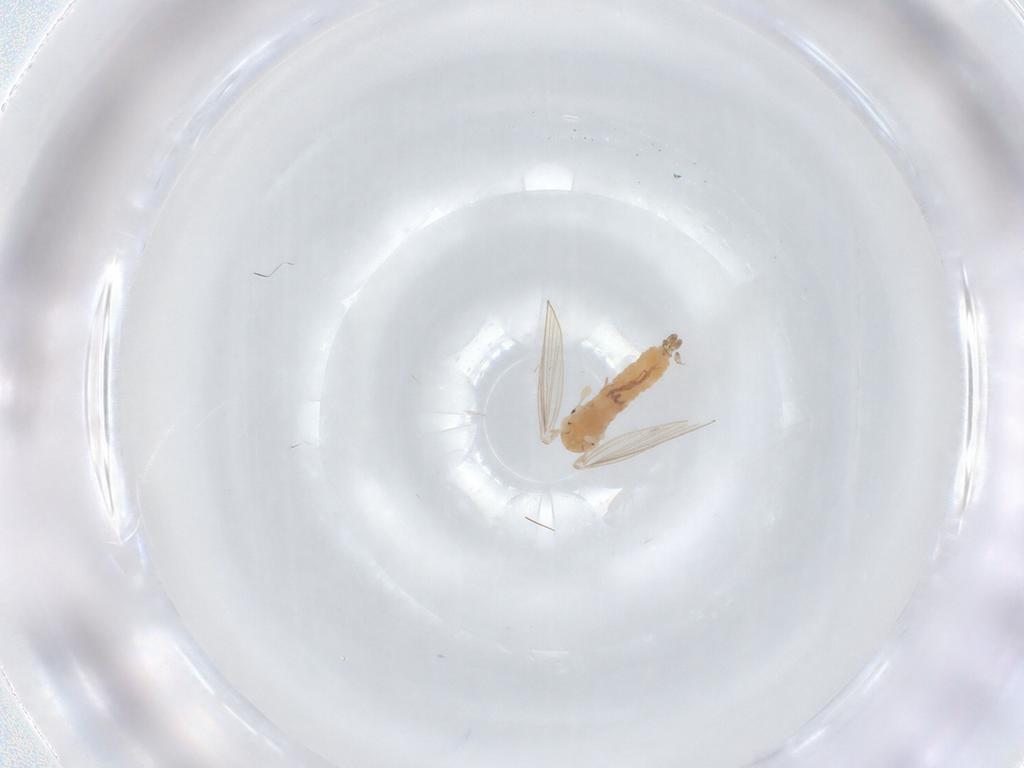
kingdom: Animalia
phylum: Arthropoda
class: Insecta
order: Diptera
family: Psychodidae
